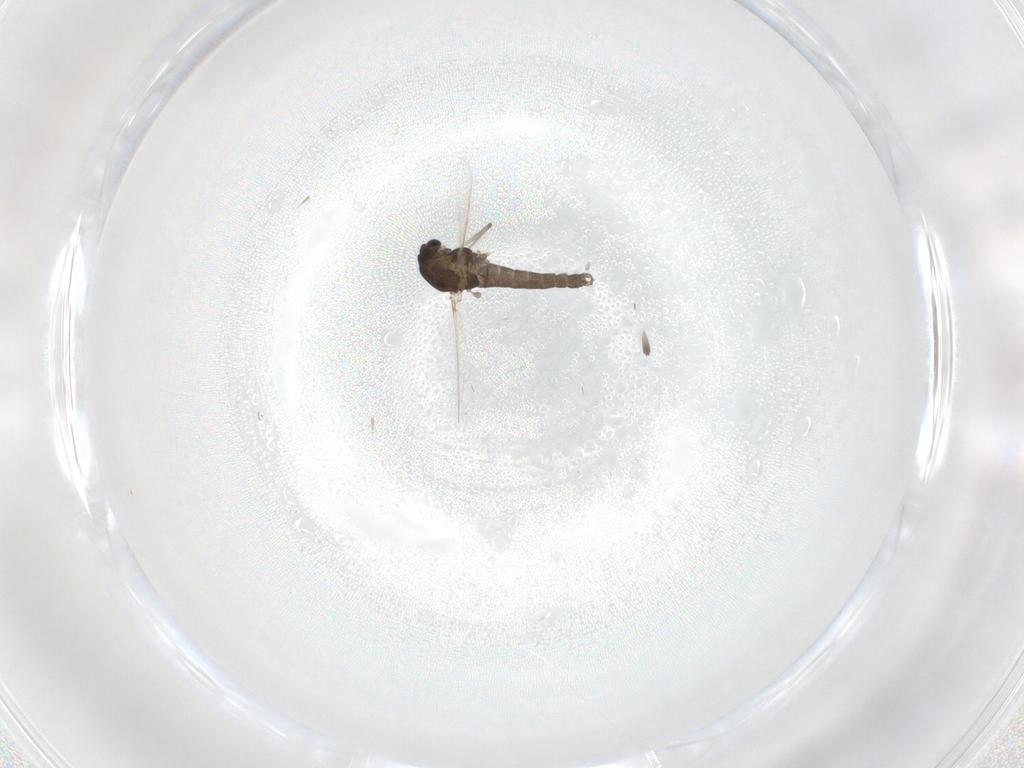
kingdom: Animalia
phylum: Arthropoda
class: Insecta
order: Diptera
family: Chironomidae
